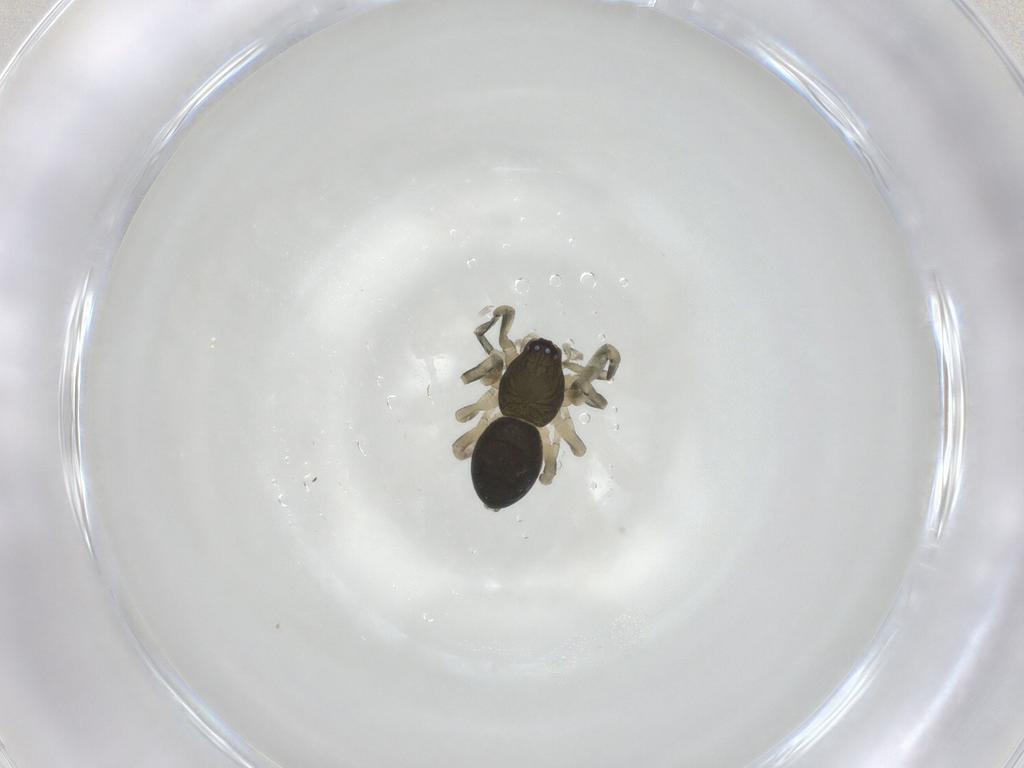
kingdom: Animalia
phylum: Arthropoda
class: Arachnida
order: Araneae
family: Trachelidae
